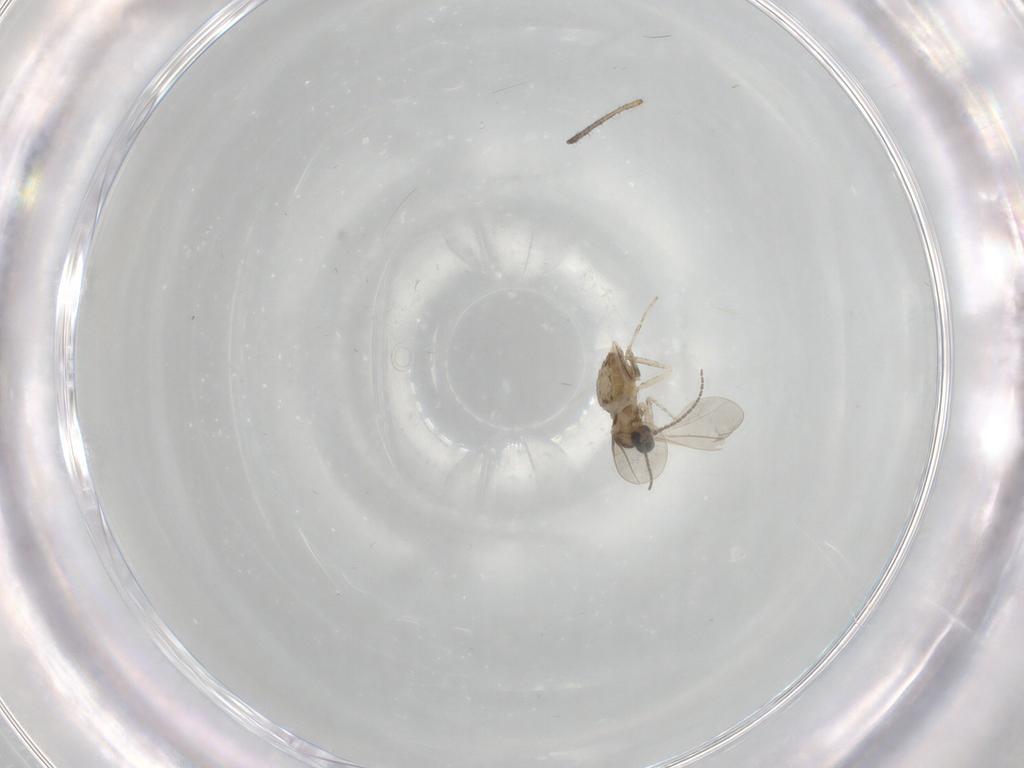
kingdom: Animalia
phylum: Arthropoda
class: Insecta
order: Diptera
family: Cecidomyiidae
